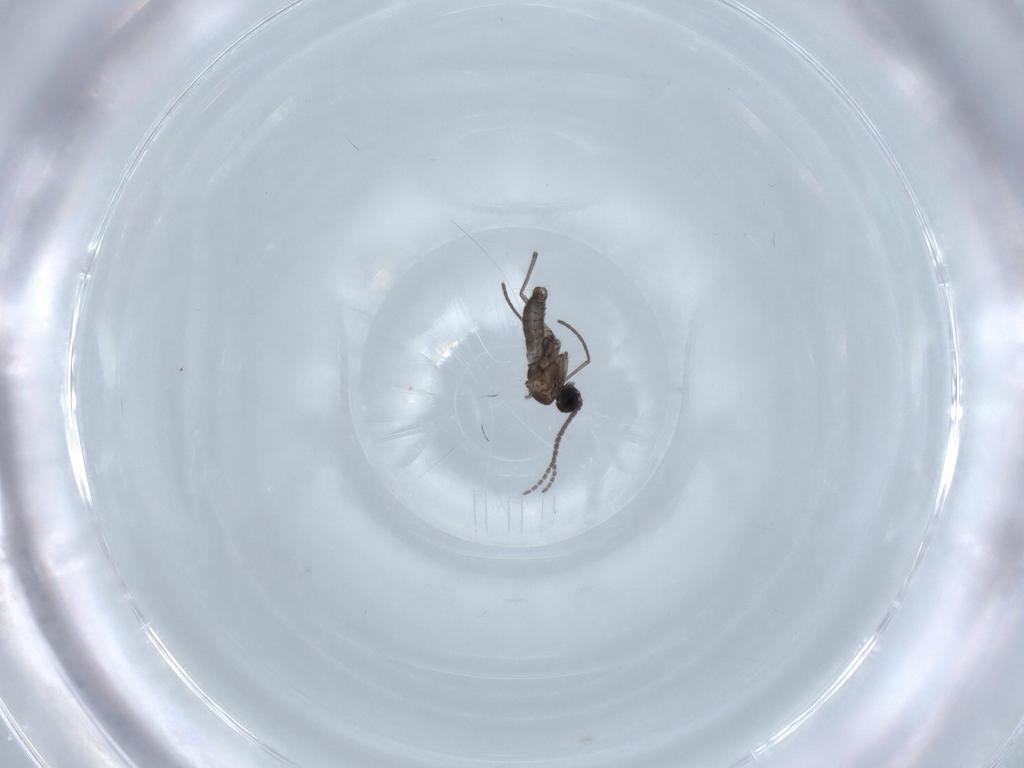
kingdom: Animalia
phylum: Arthropoda
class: Insecta
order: Diptera
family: Sciaridae
